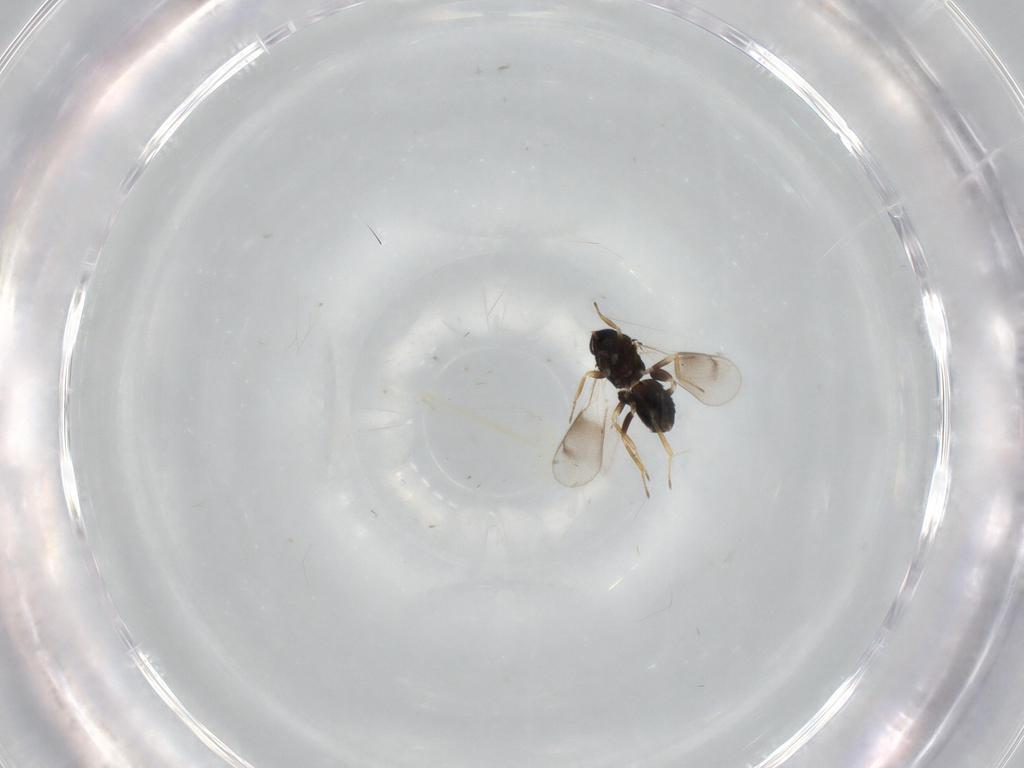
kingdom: Animalia
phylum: Arthropoda
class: Insecta
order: Hymenoptera
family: Eulophidae
